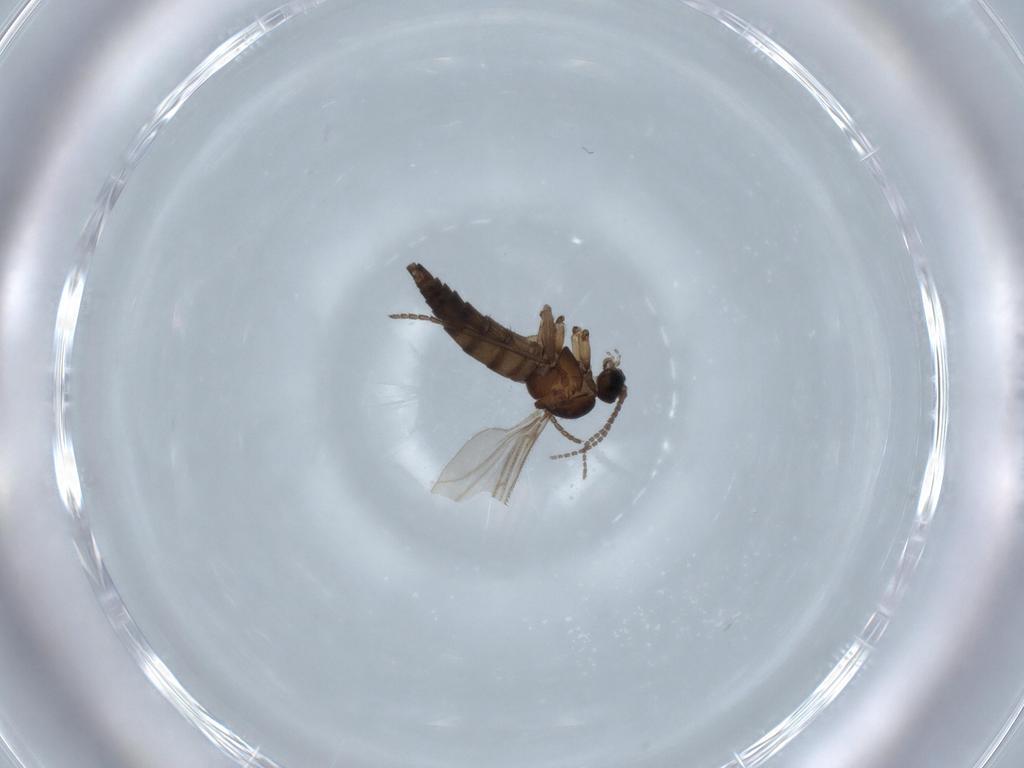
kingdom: Animalia
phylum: Arthropoda
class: Insecta
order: Diptera
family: Sciaridae
